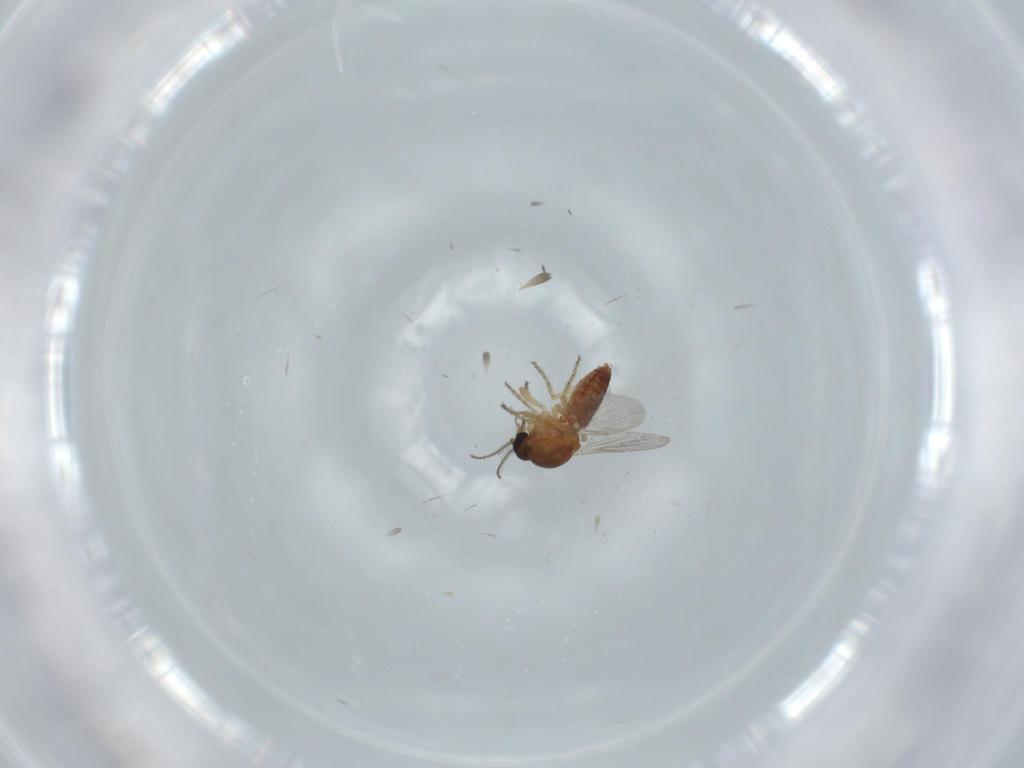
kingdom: Animalia
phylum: Arthropoda
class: Insecta
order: Diptera
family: Ceratopogonidae
